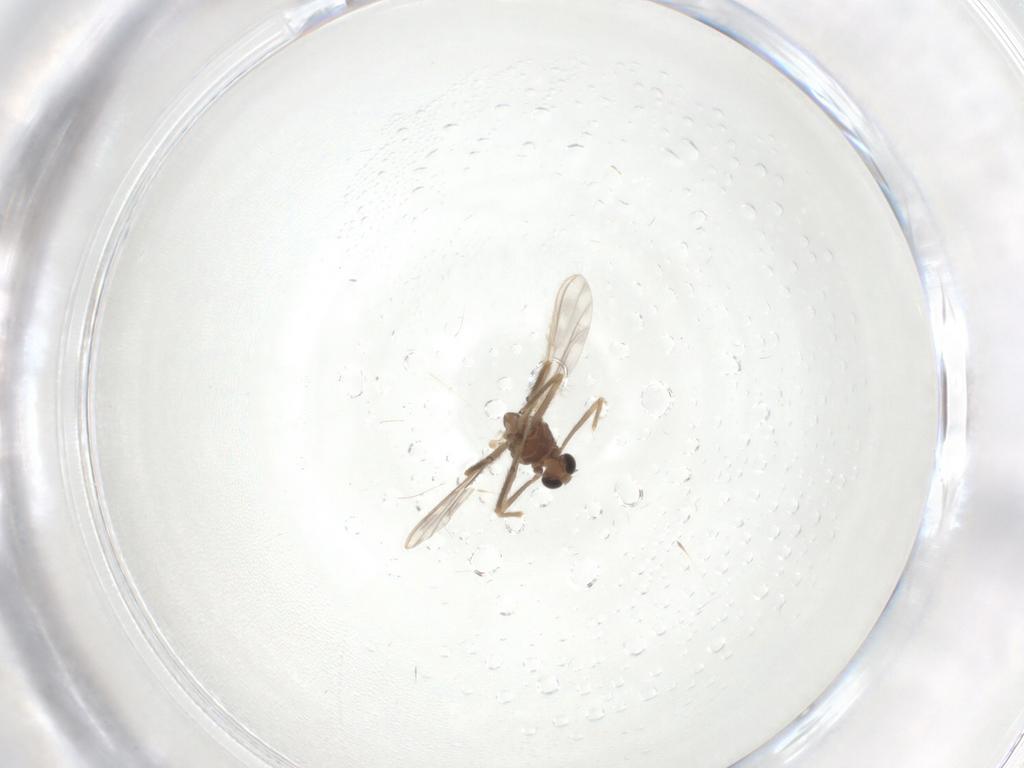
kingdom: Animalia
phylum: Arthropoda
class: Insecta
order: Diptera
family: Chironomidae
